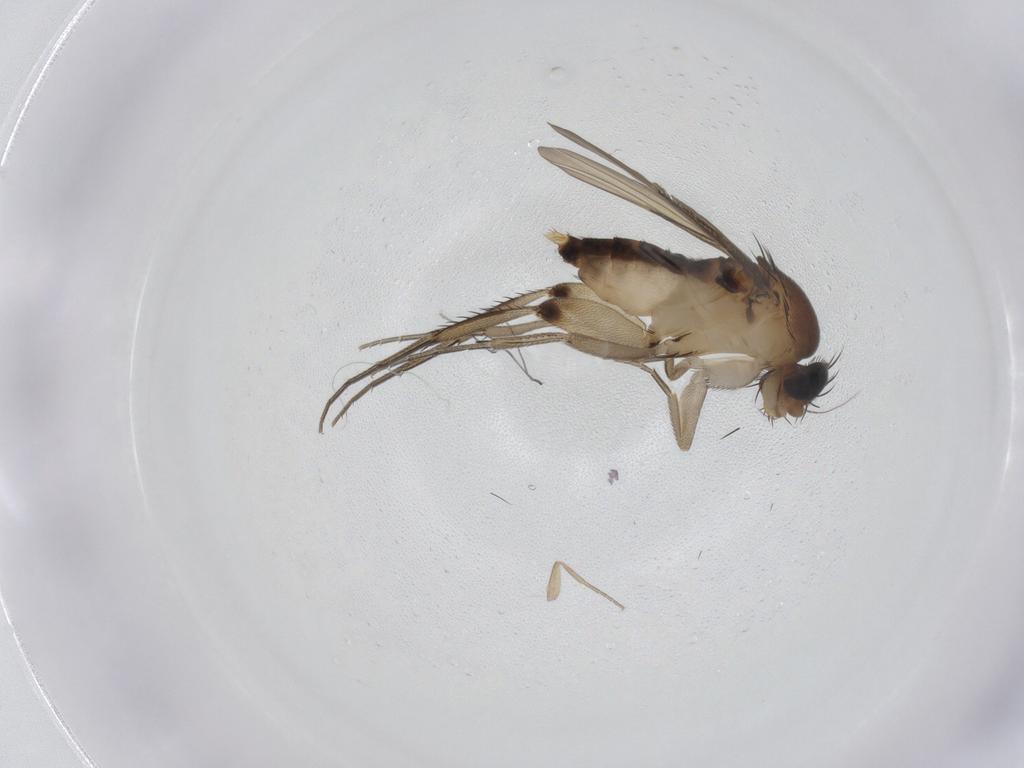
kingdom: Animalia
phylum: Arthropoda
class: Insecta
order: Diptera
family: Phoridae
